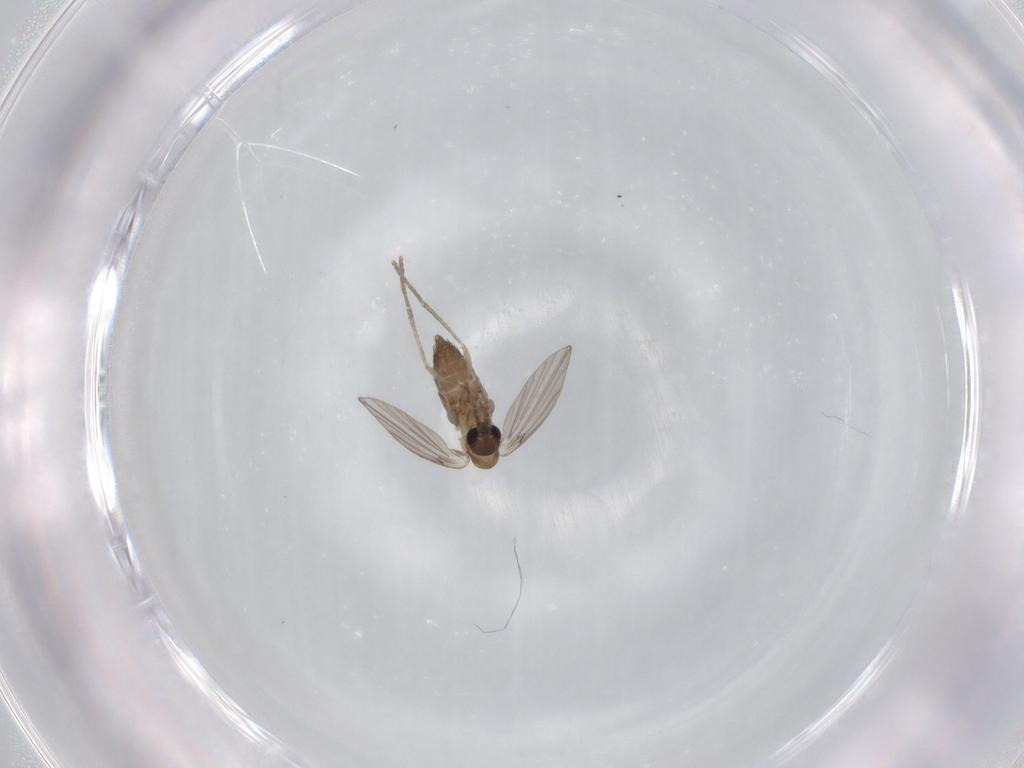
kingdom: Animalia
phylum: Arthropoda
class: Insecta
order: Diptera
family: Psychodidae
